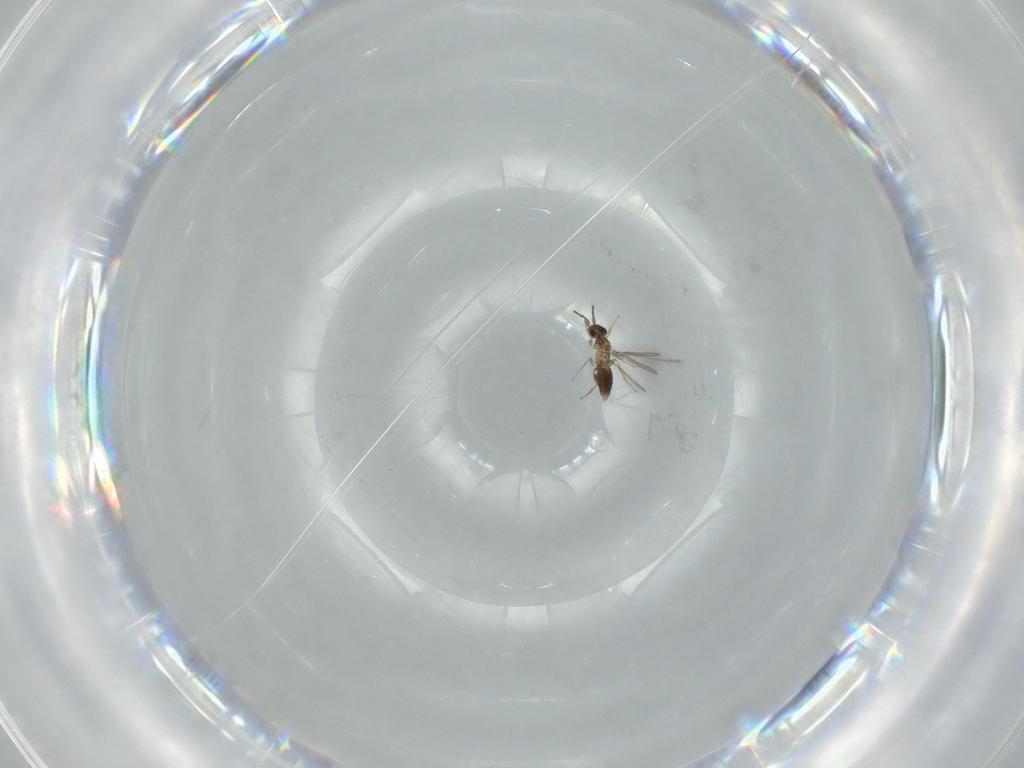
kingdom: Animalia
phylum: Arthropoda
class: Insecta
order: Hymenoptera
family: Mymaridae
